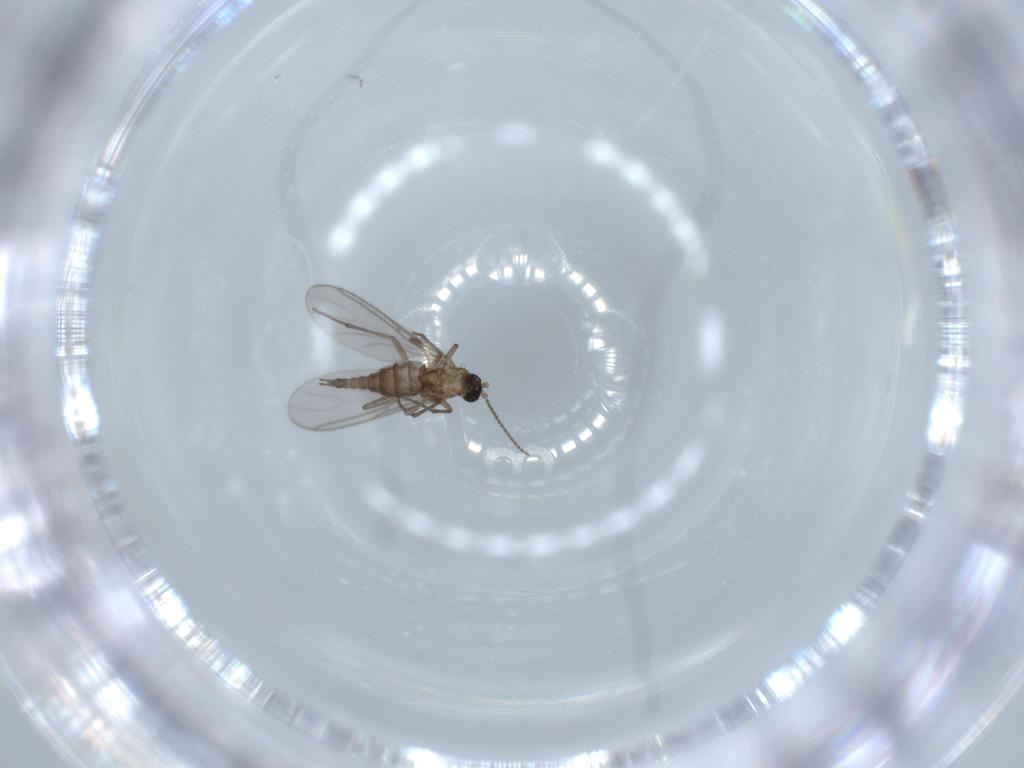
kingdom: Animalia
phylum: Arthropoda
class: Insecta
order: Diptera
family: Sciaridae
